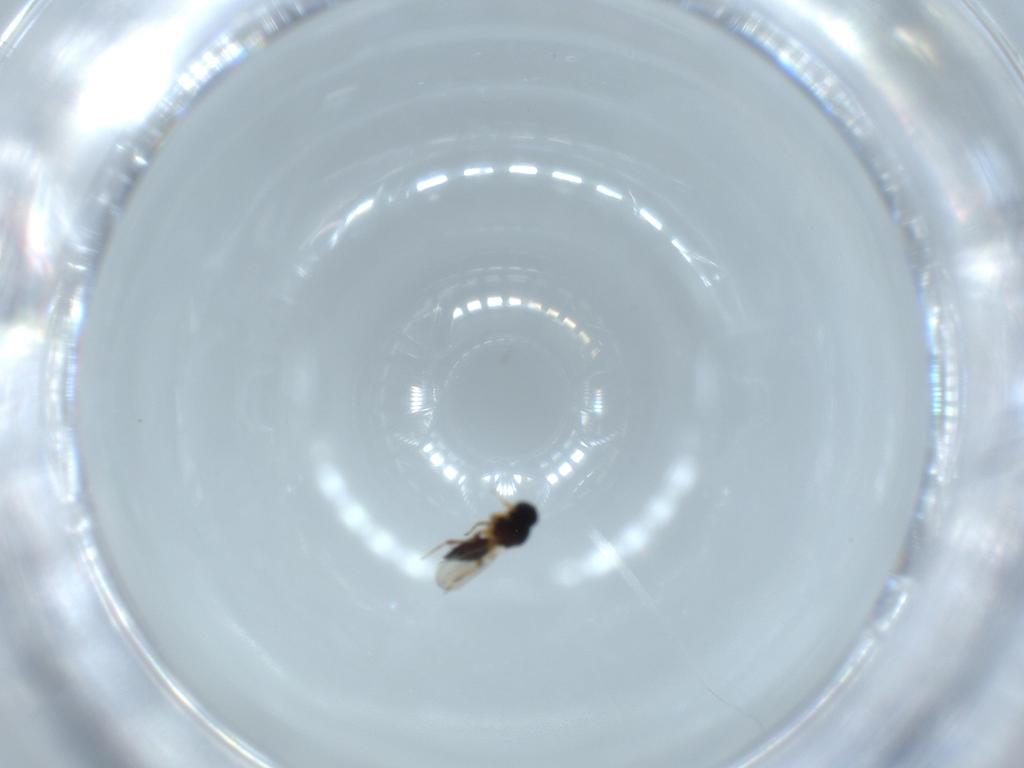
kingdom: Animalia
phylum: Arthropoda
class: Insecta
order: Hymenoptera
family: Platygastridae
